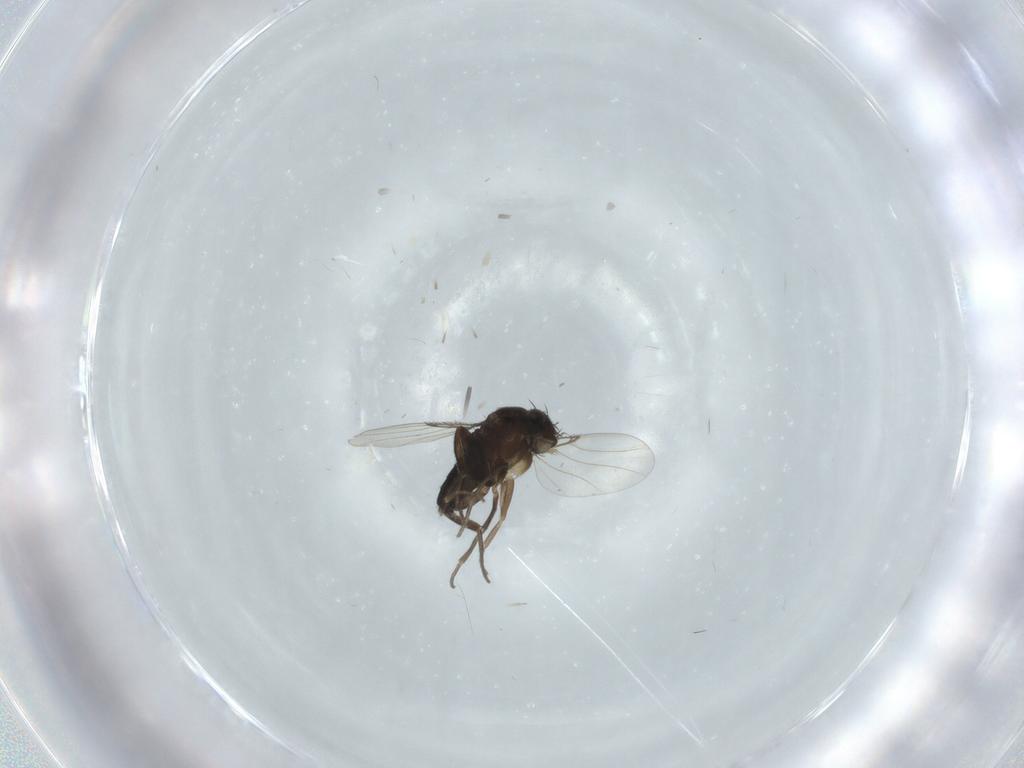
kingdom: Animalia
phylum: Arthropoda
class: Insecta
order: Diptera
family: Phoridae
